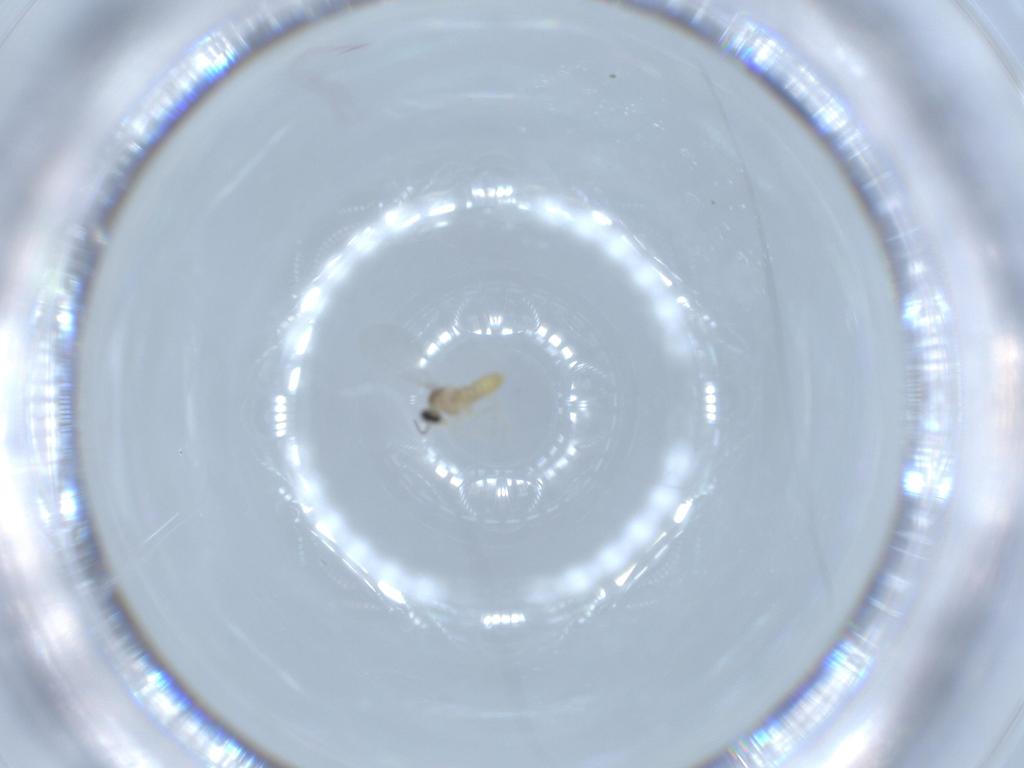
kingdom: Animalia
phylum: Arthropoda
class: Insecta
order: Diptera
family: Cecidomyiidae
